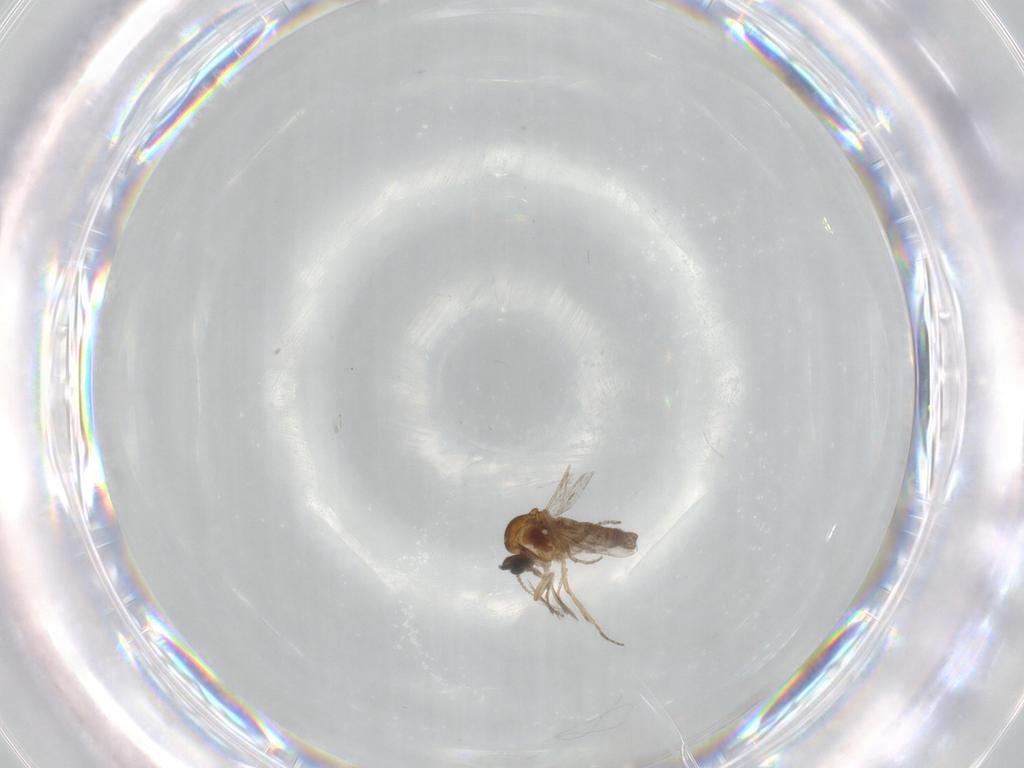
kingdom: Animalia
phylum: Arthropoda
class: Insecta
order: Diptera
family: Ceratopogonidae
